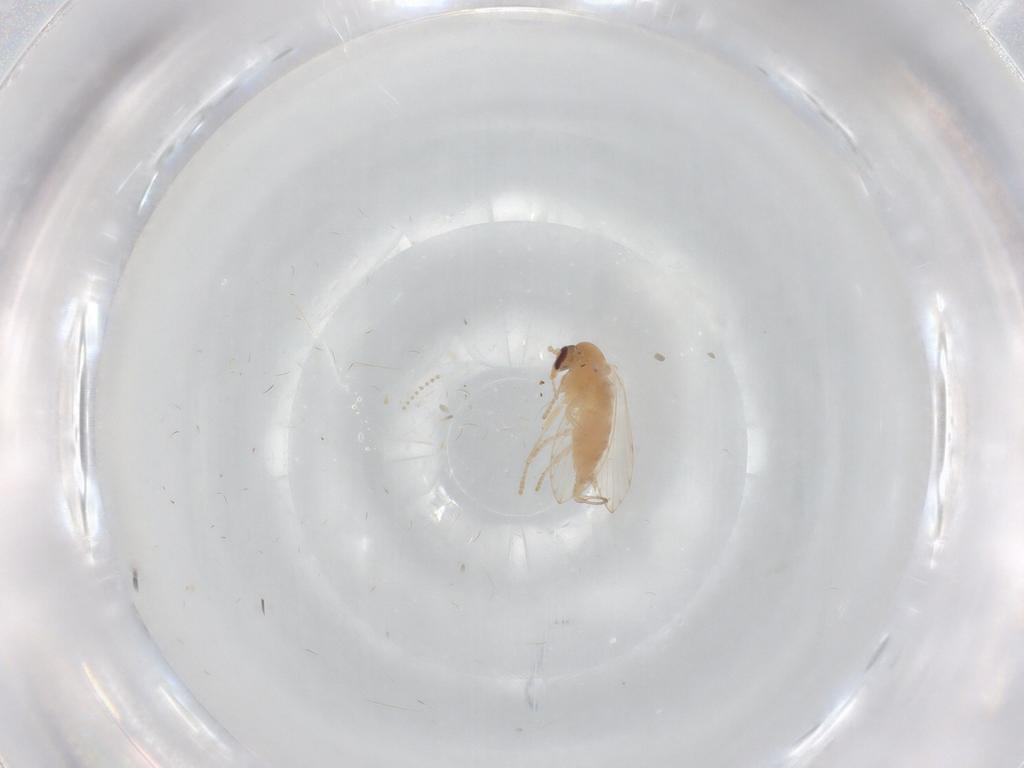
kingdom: Animalia
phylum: Arthropoda
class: Insecta
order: Diptera
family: Psychodidae
